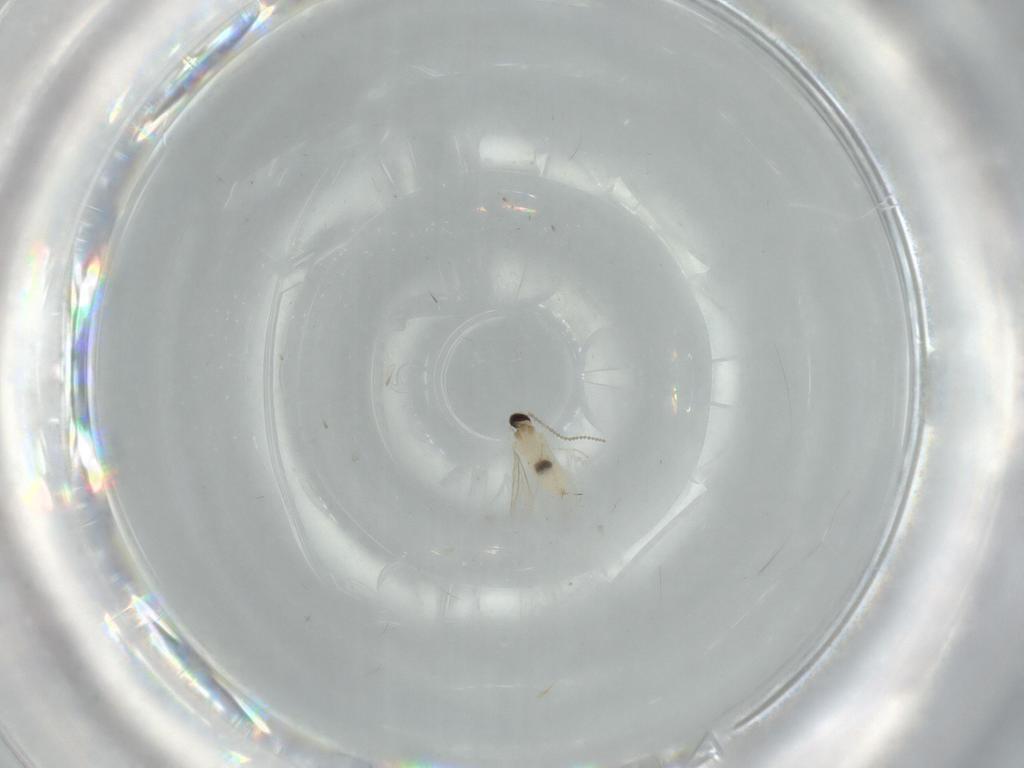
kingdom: Animalia
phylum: Arthropoda
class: Insecta
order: Diptera
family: Cecidomyiidae
